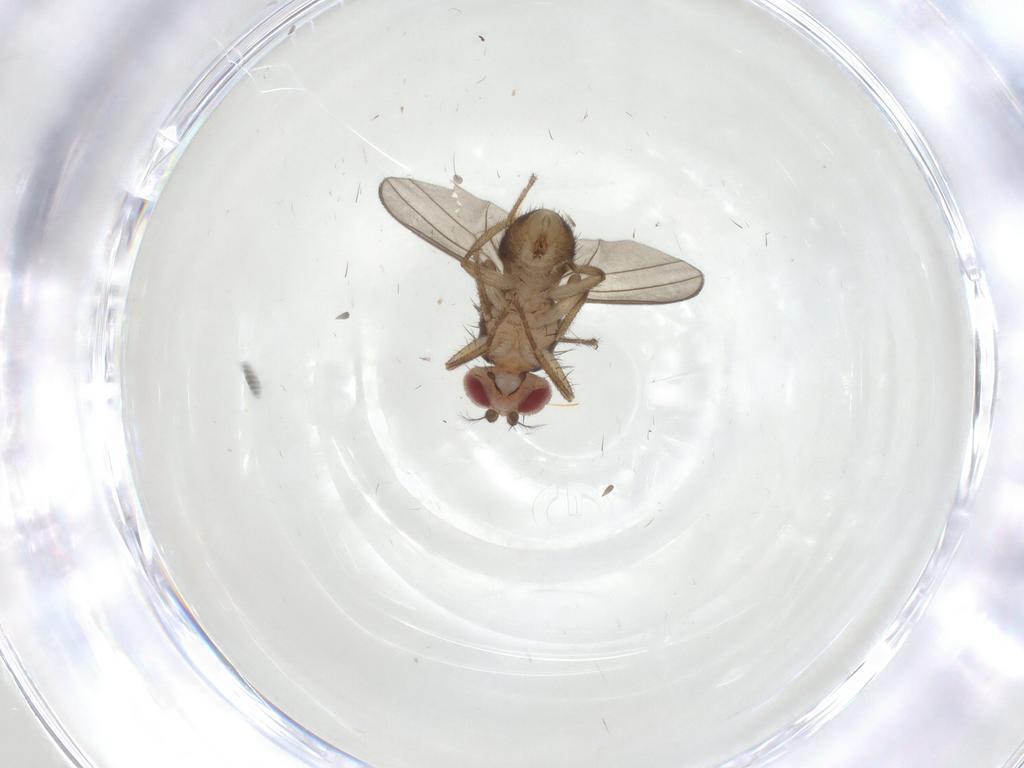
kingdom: Animalia
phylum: Arthropoda
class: Insecta
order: Diptera
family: Drosophilidae
